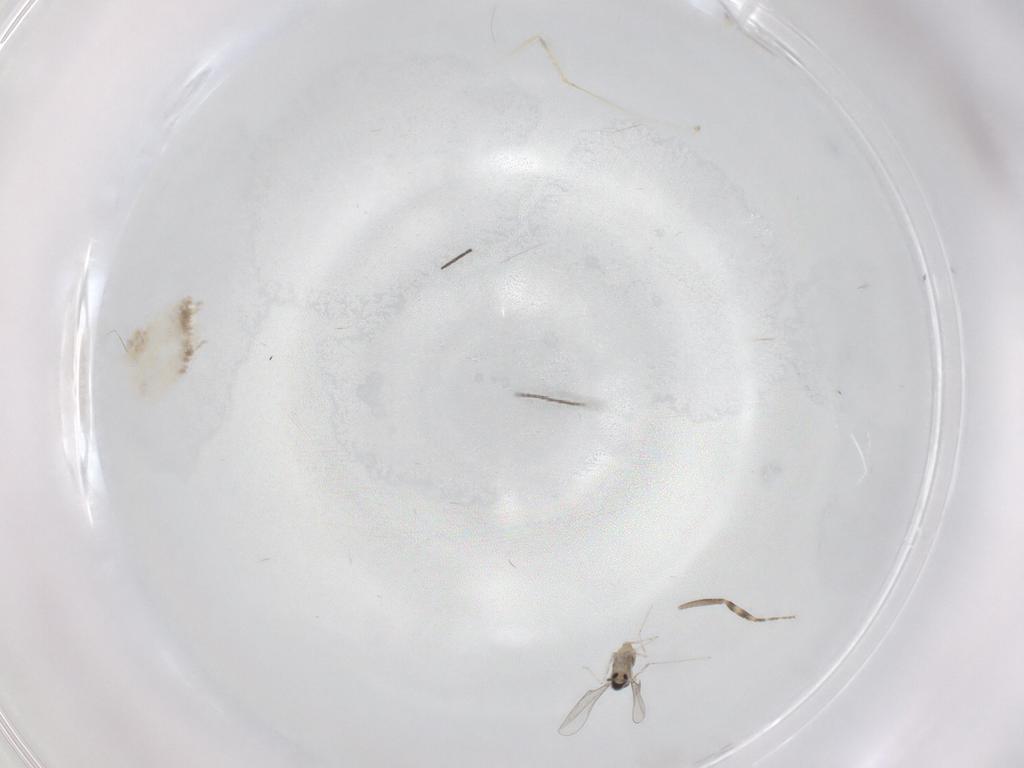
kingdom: Animalia
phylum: Arthropoda
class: Insecta
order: Diptera
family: Cecidomyiidae
